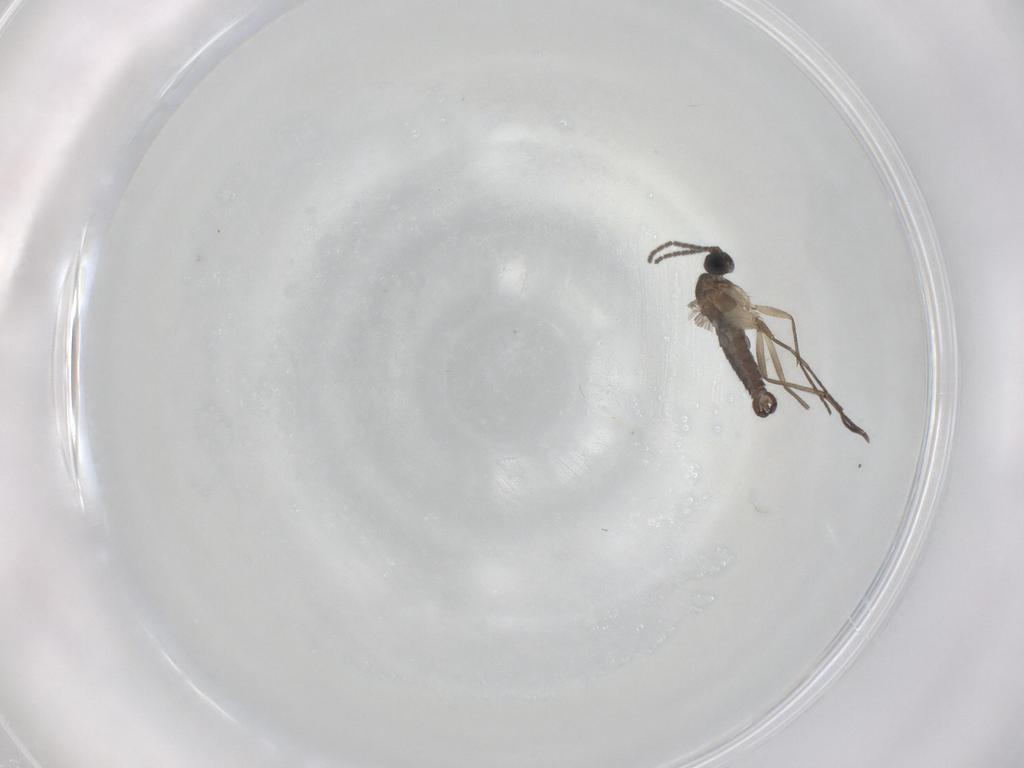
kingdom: Animalia
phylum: Arthropoda
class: Insecta
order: Diptera
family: Sciaridae
